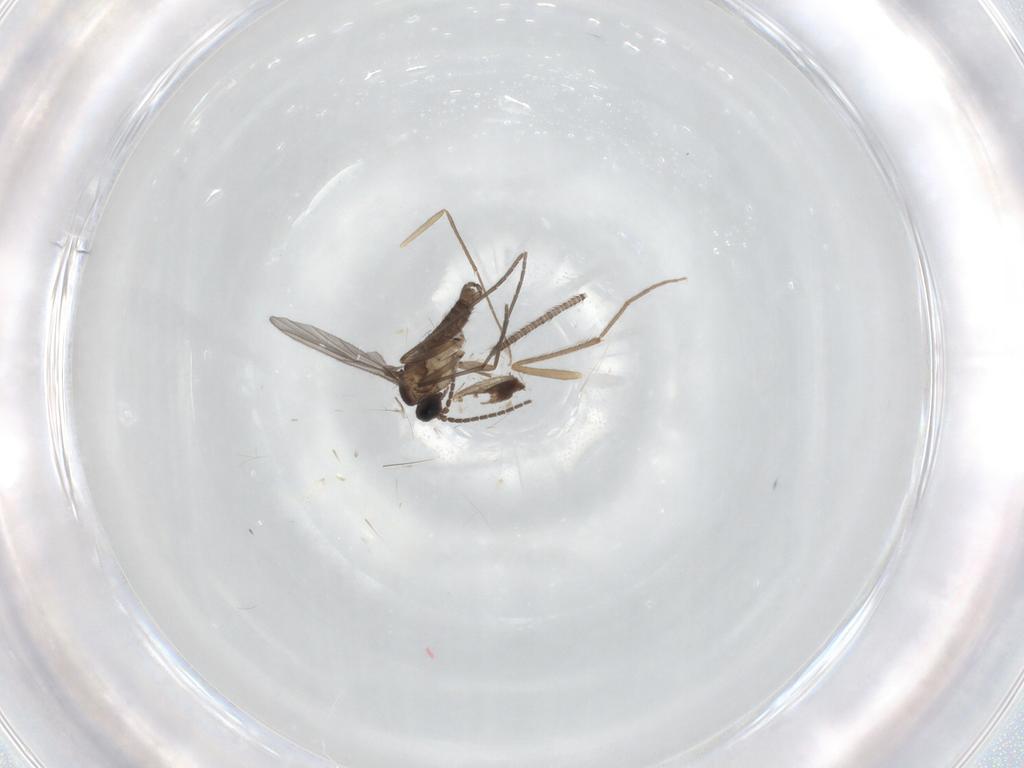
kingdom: Animalia
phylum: Arthropoda
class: Insecta
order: Diptera
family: Sciaridae
